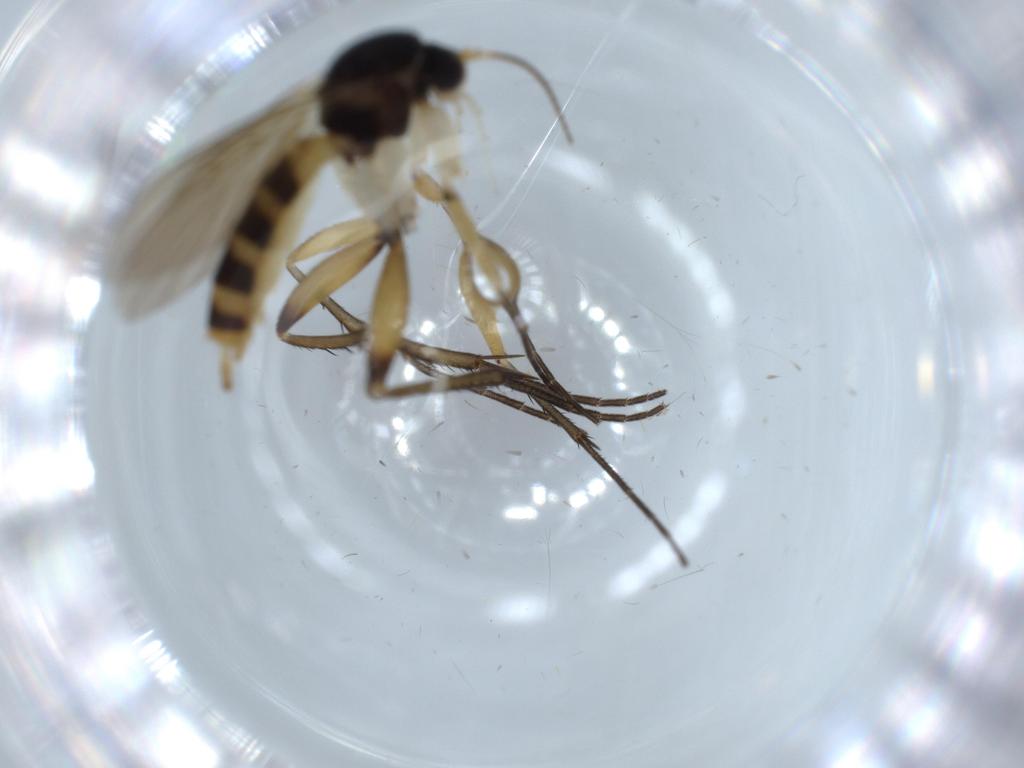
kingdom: Animalia
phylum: Arthropoda
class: Insecta
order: Diptera
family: Mycetophilidae
